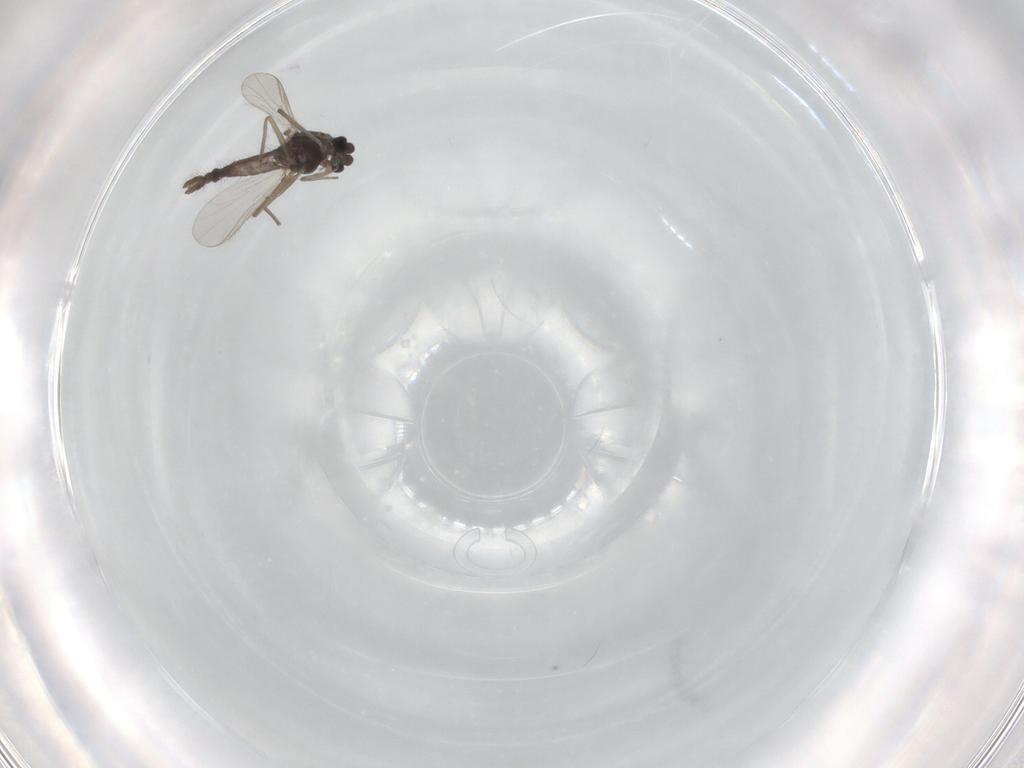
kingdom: Animalia
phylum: Arthropoda
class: Insecta
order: Diptera
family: Chironomidae
